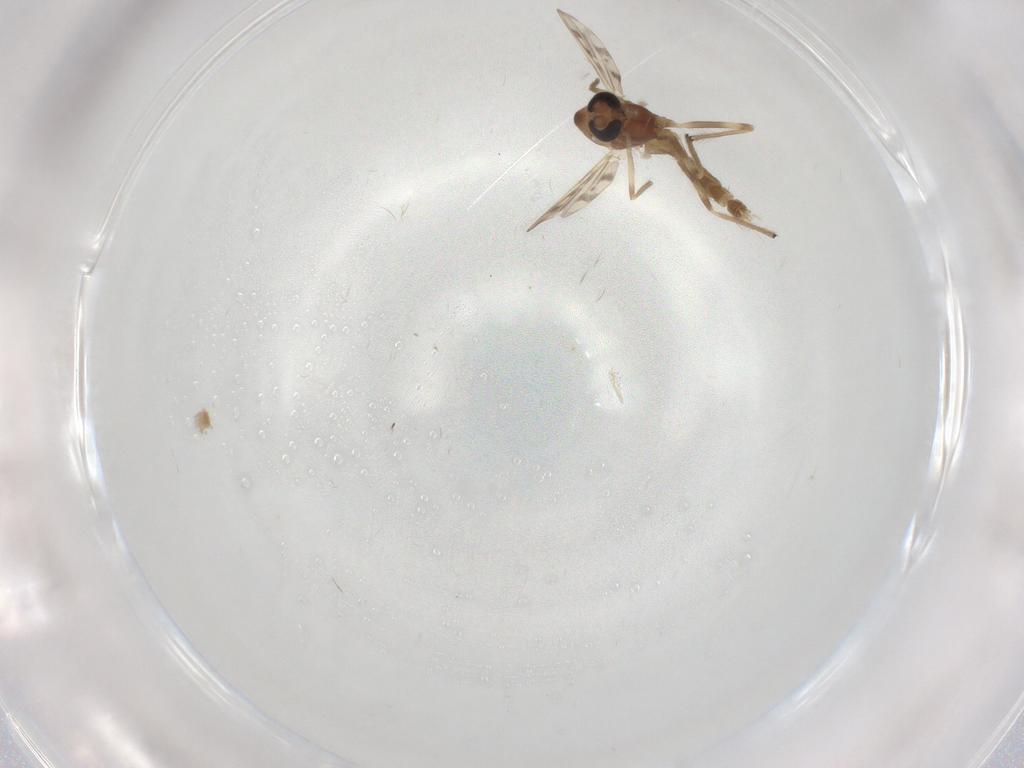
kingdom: Animalia
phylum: Arthropoda
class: Insecta
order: Diptera
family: Chironomidae
